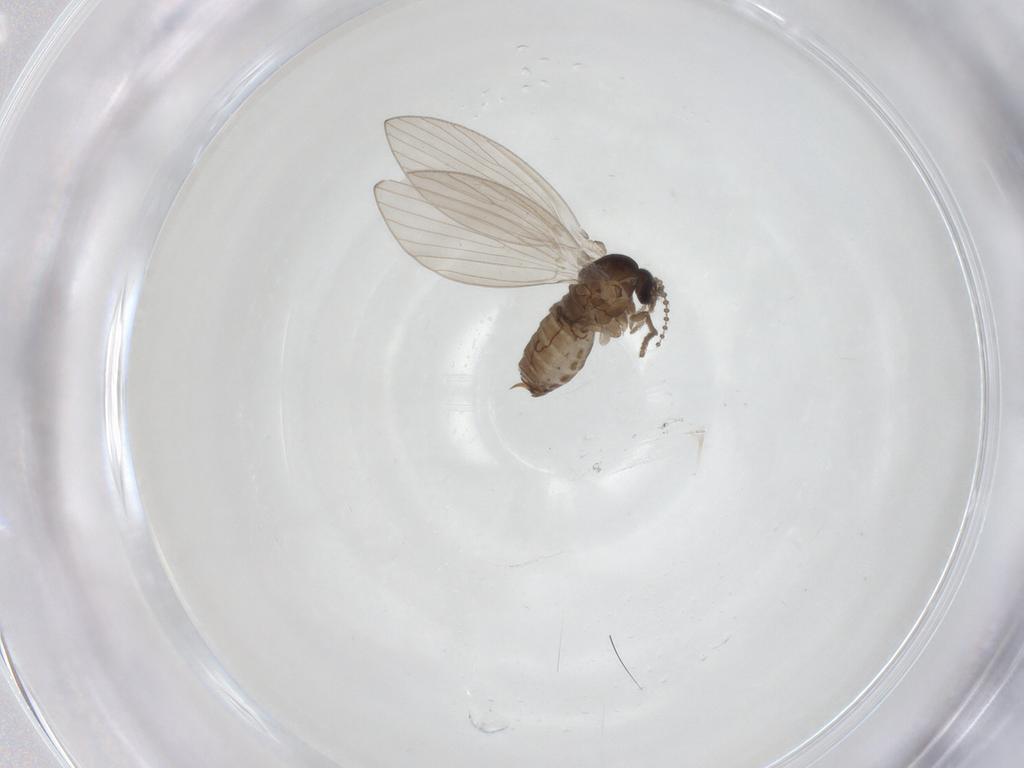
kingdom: Animalia
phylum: Arthropoda
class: Insecta
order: Diptera
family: Psychodidae
